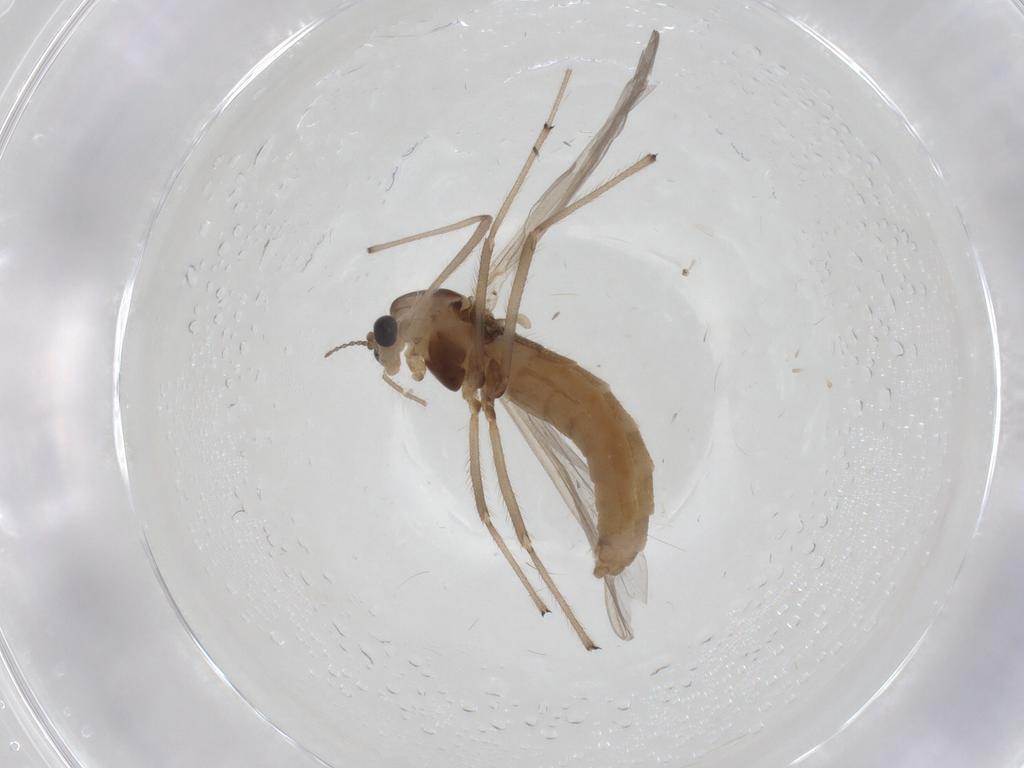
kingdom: Animalia
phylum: Arthropoda
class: Insecta
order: Diptera
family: Chironomidae
